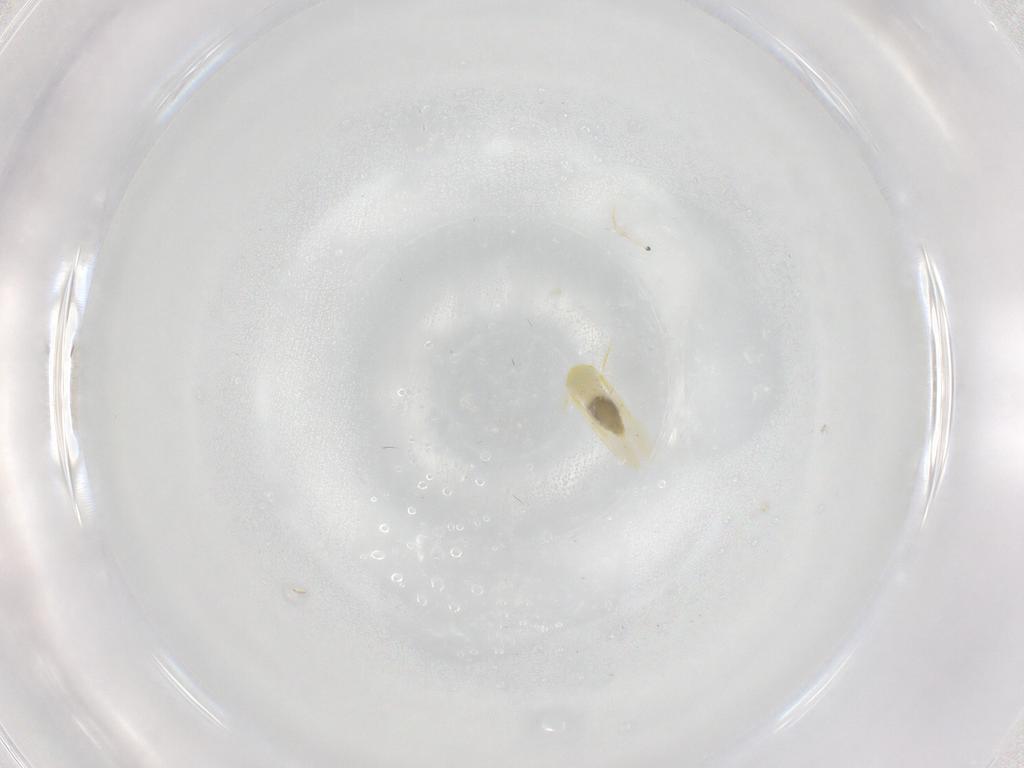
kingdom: Animalia
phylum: Arthropoda
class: Insecta
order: Hemiptera
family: Aleyrodidae
